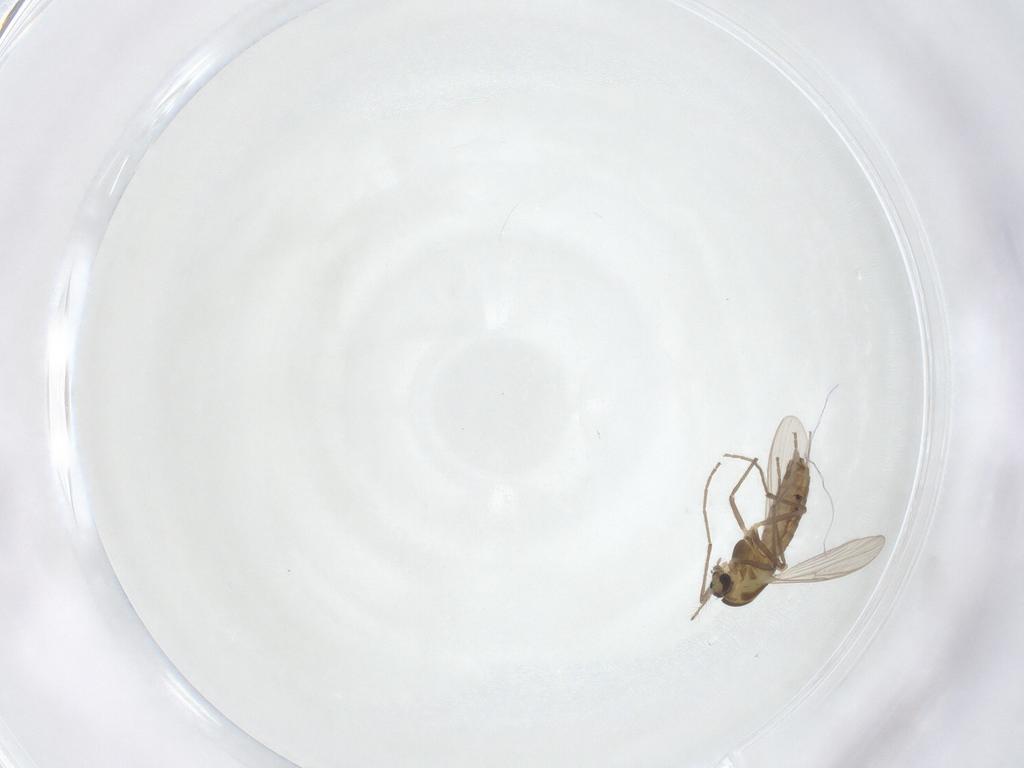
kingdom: Animalia
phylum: Arthropoda
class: Insecta
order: Diptera
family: Chironomidae
